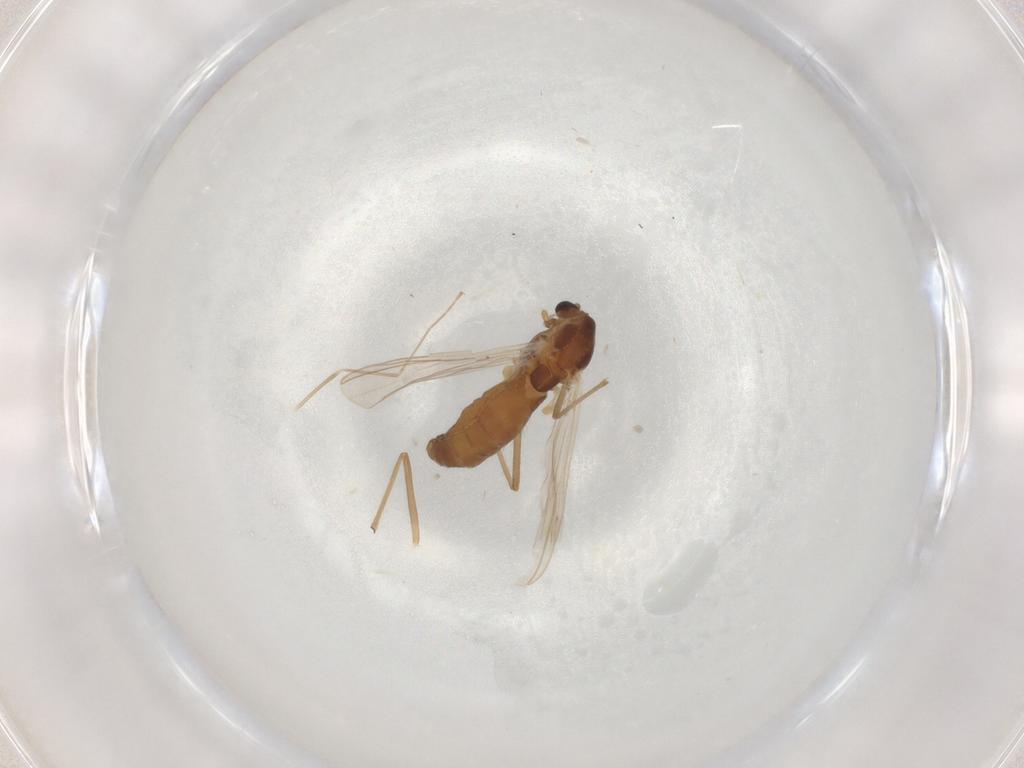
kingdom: Animalia
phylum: Arthropoda
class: Insecta
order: Diptera
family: Chironomidae
